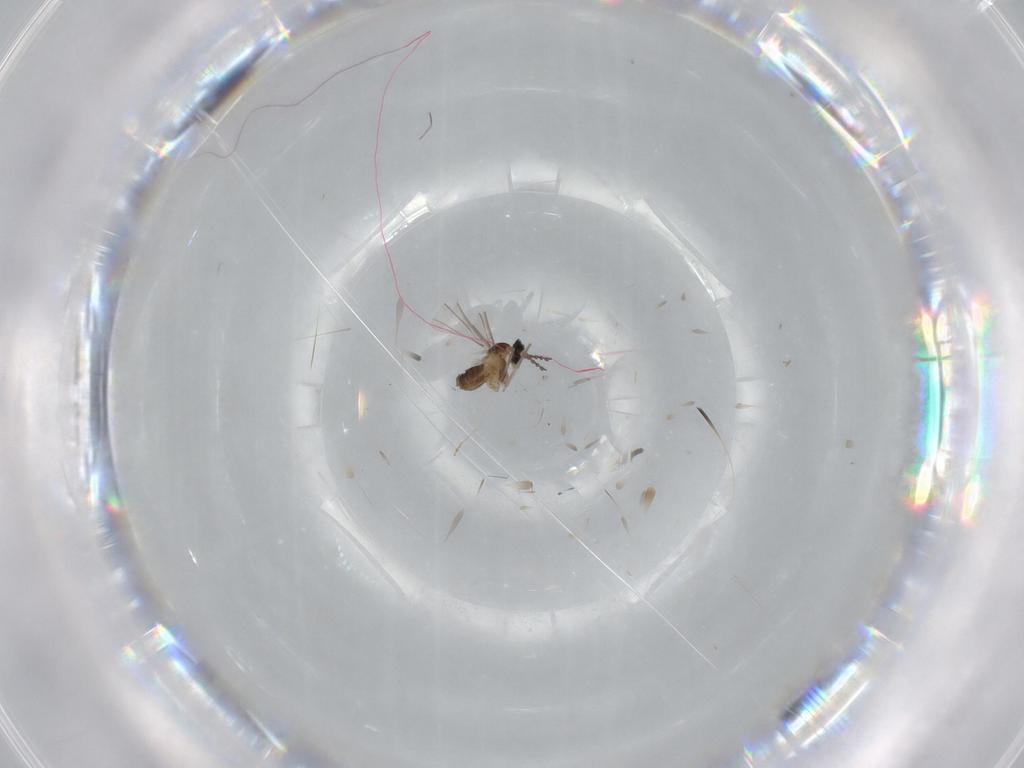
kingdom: Animalia
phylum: Arthropoda
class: Insecta
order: Diptera
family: Cecidomyiidae
